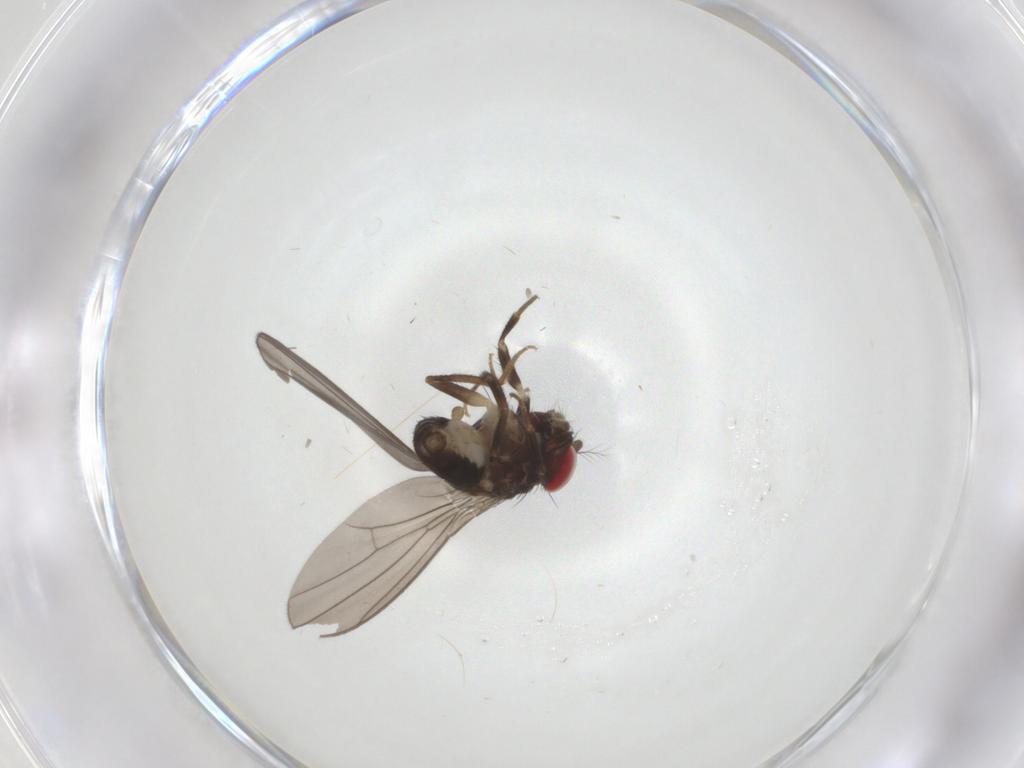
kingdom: Animalia
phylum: Arthropoda
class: Insecta
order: Diptera
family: Drosophilidae
